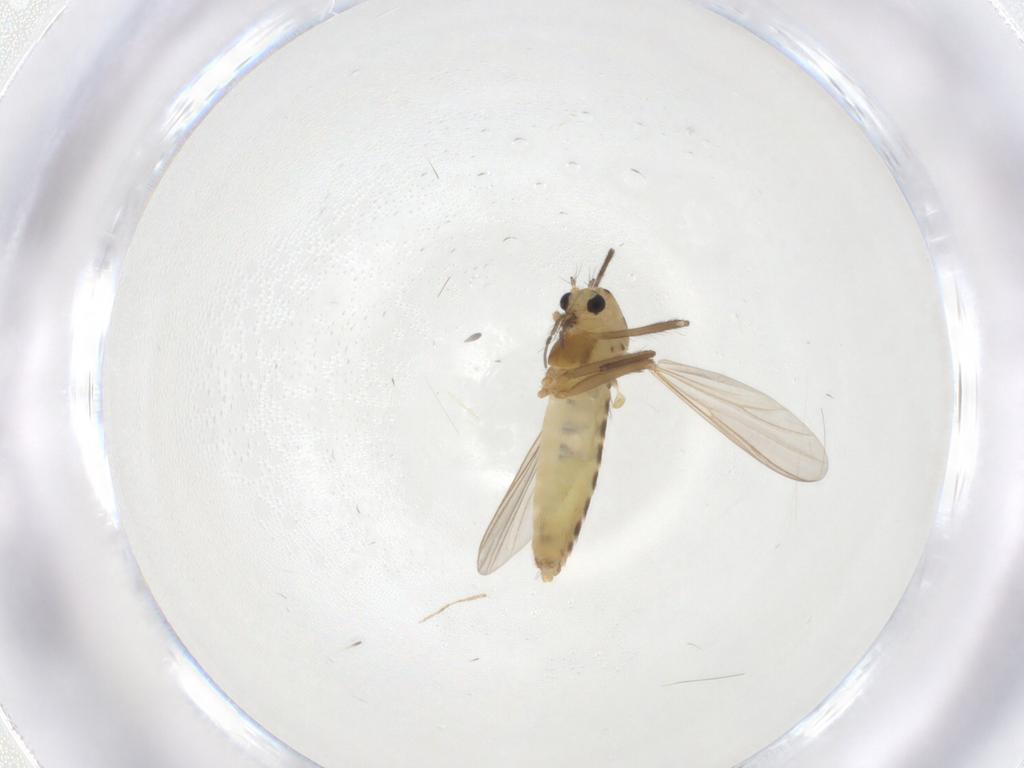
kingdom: Animalia
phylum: Arthropoda
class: Insecta
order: Diptera
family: Chironomidae
